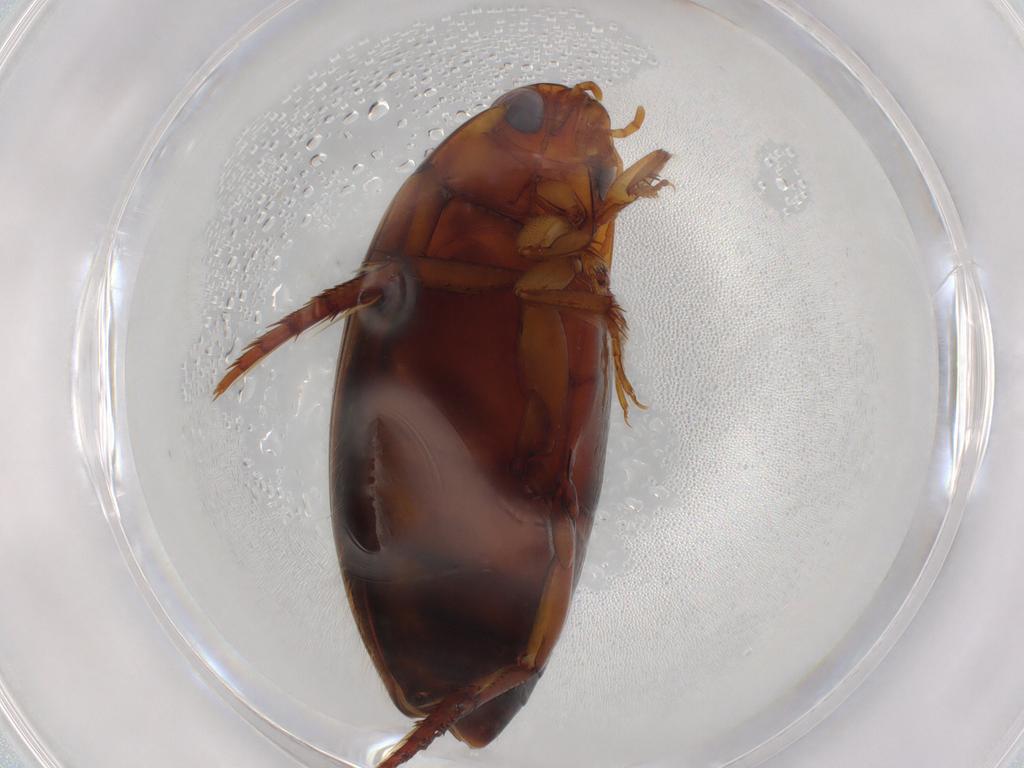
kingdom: Animalia
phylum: Arthropoda
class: Insecta
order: Coleoptera
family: Dytiscidae
